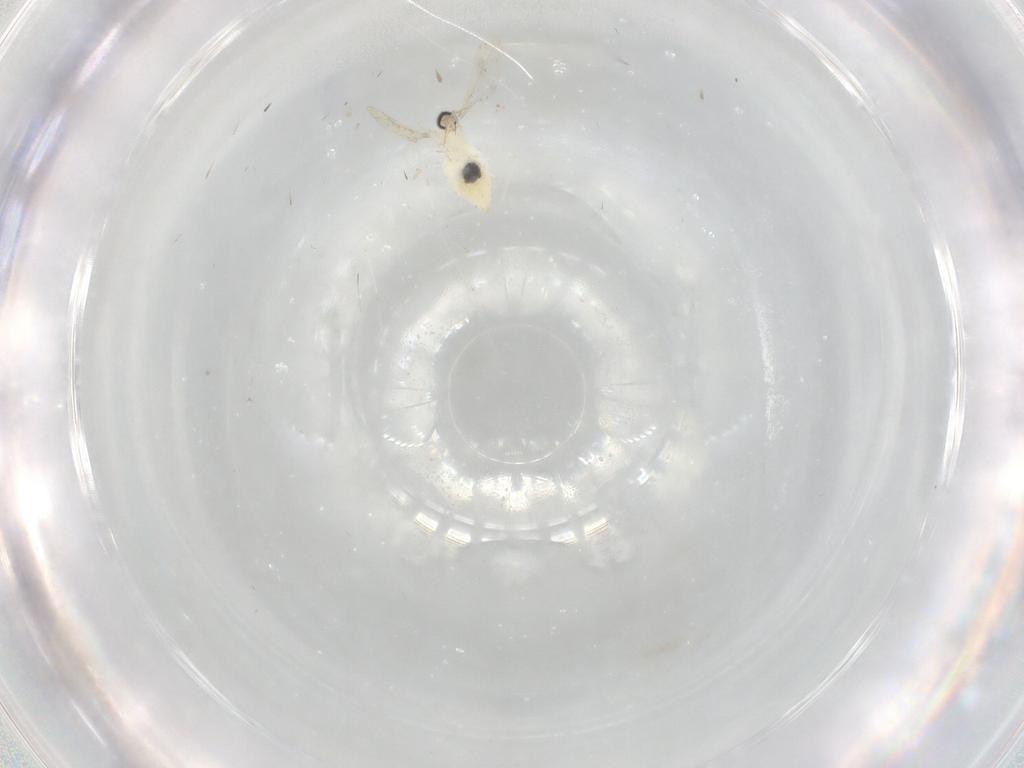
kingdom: Animalia
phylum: Arthropoda
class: Insecta
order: Diptera
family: Cecidomyiidae
